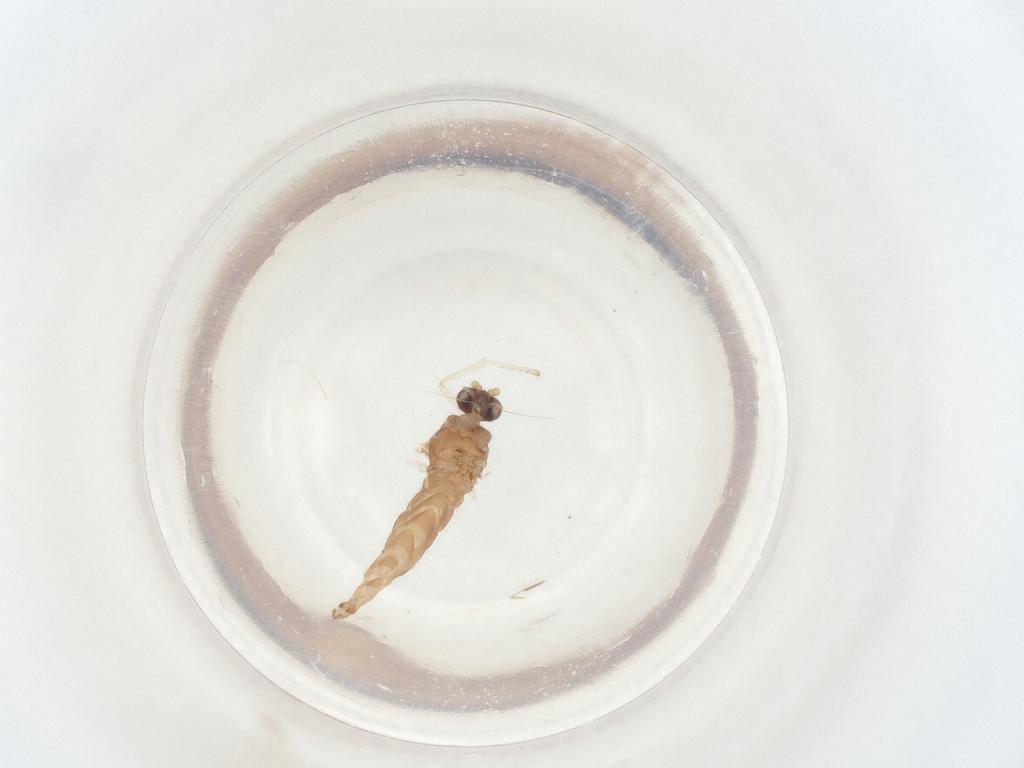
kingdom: Animalia
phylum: Arthropoda
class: Insecta
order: Diptera
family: Sciaridae
